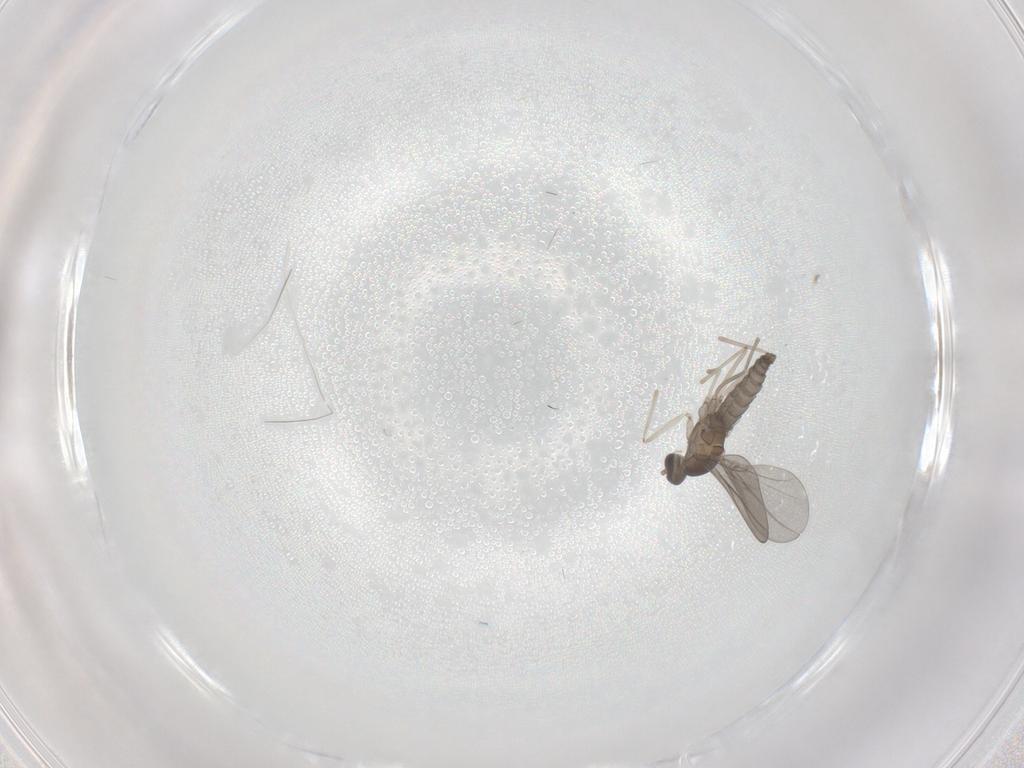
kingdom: Animalia
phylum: Arthropoda
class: Insecta
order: Diptera
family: Cecidomyiidae
